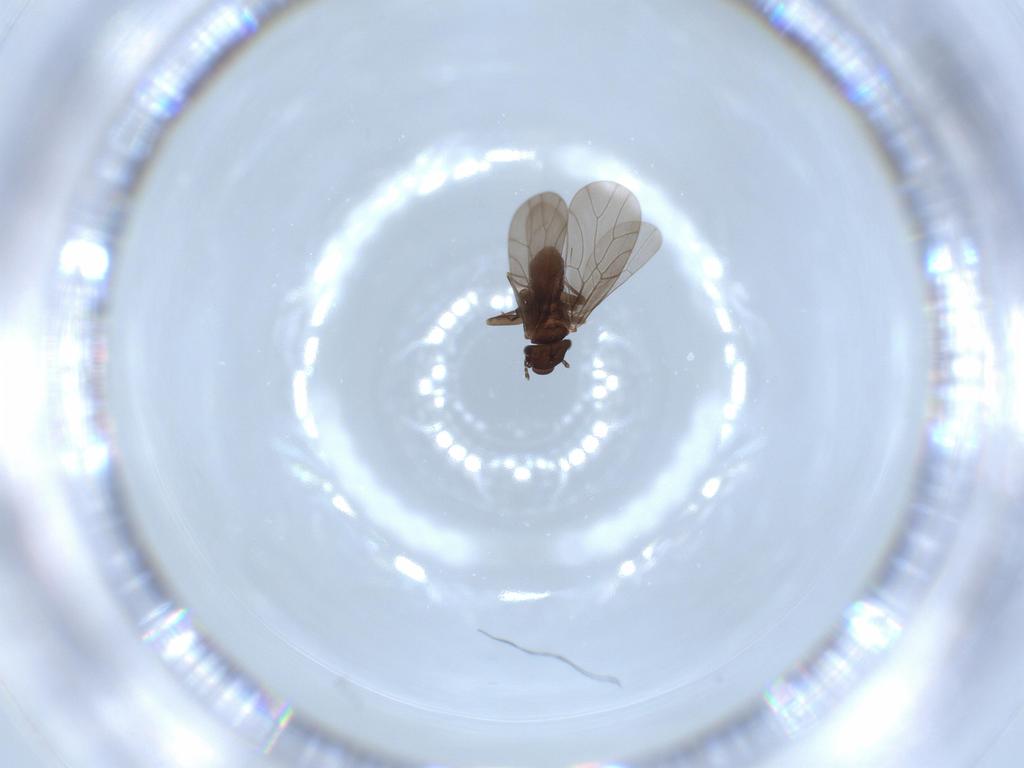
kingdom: Animalia
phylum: Arthropoda
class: Insecta
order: Psocodea
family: Lepidopsocidae
